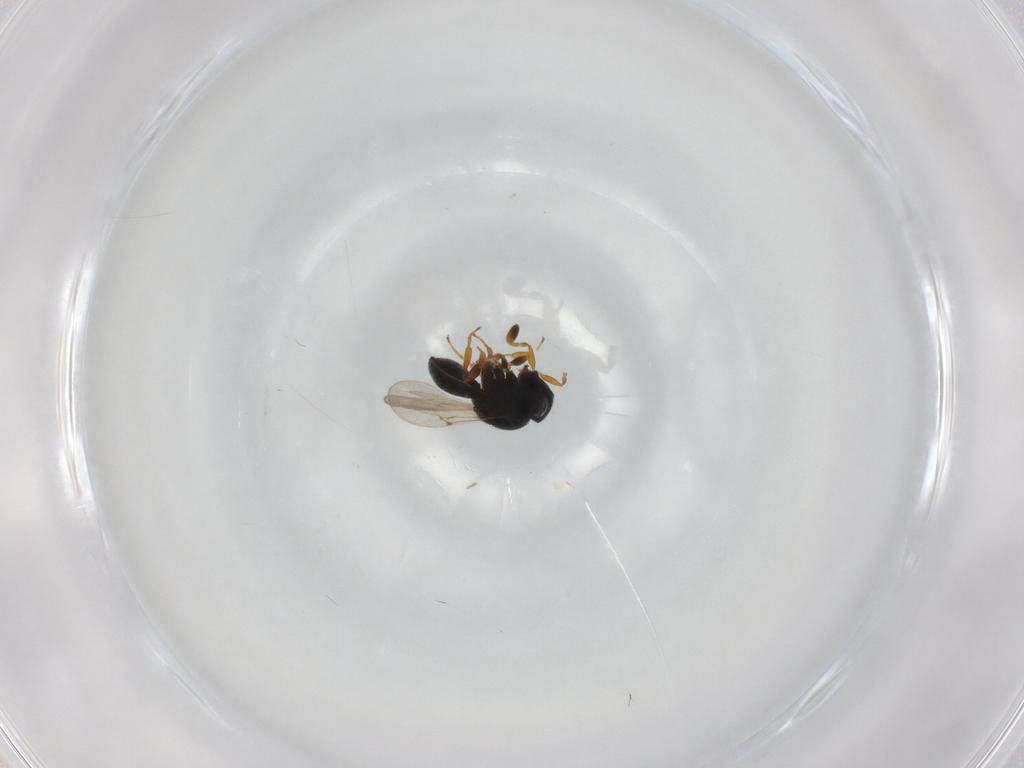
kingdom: Animalia
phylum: Arthropoda
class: Insecta
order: Hymenoptera
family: Scelionidae
